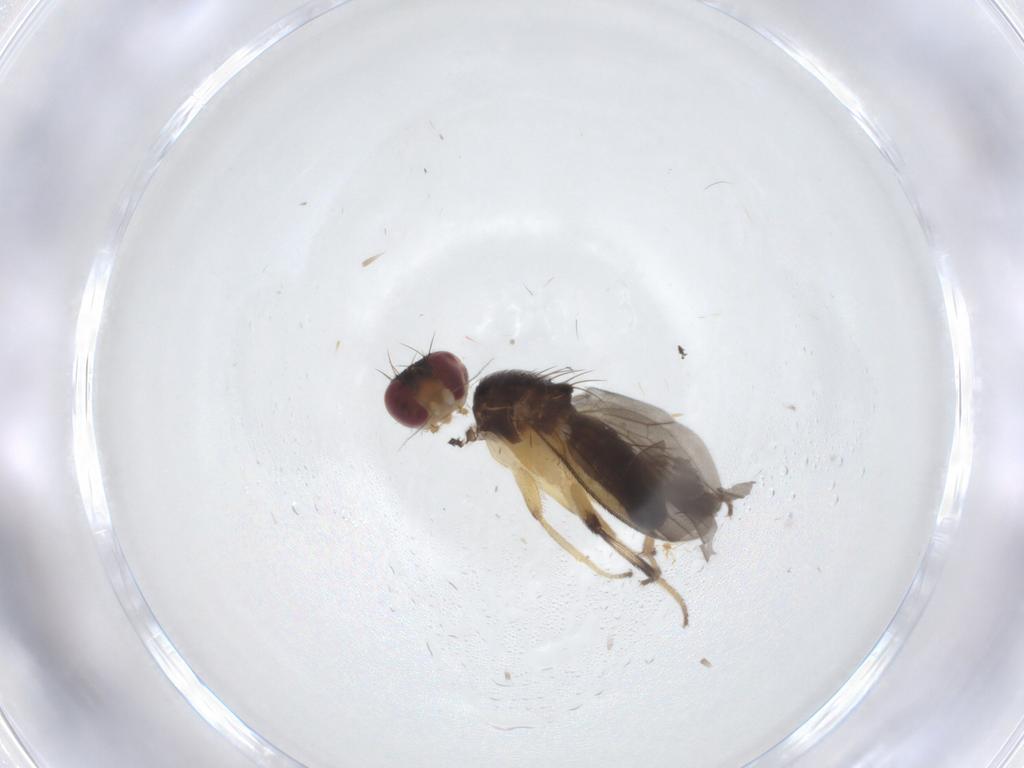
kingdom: Animalia
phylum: Arthropoda
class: Insecta
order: Diptera
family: Clusiidae
